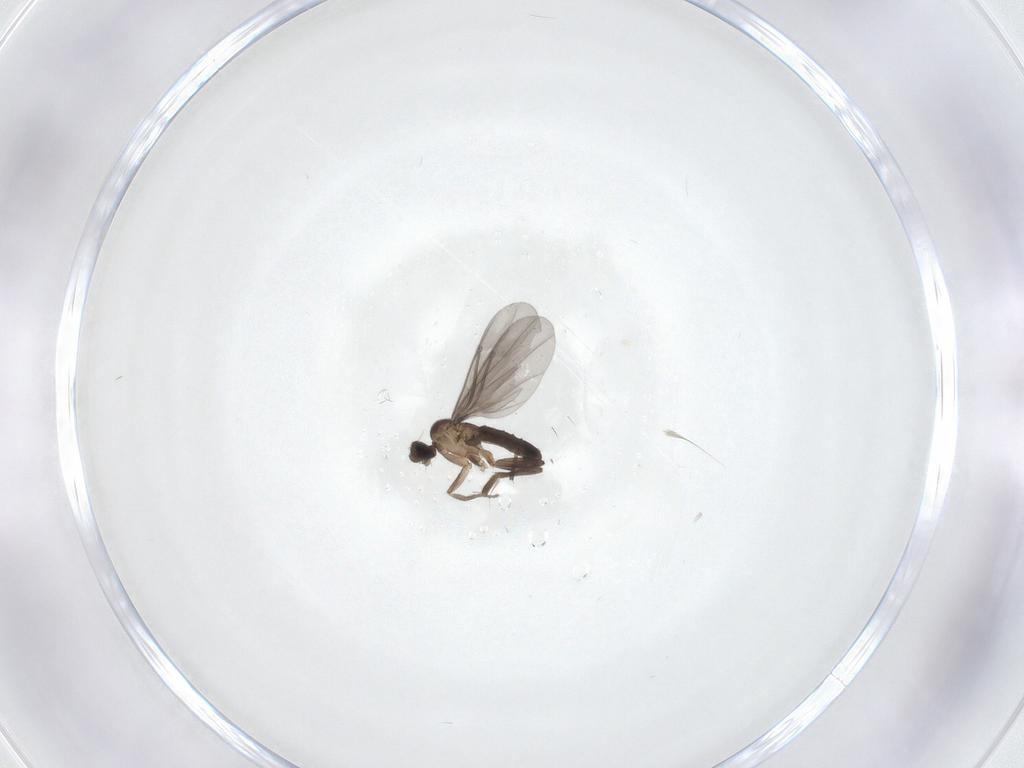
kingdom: Animalia
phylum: Arthropoda
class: Insecta
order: Diptera
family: Phoridae
